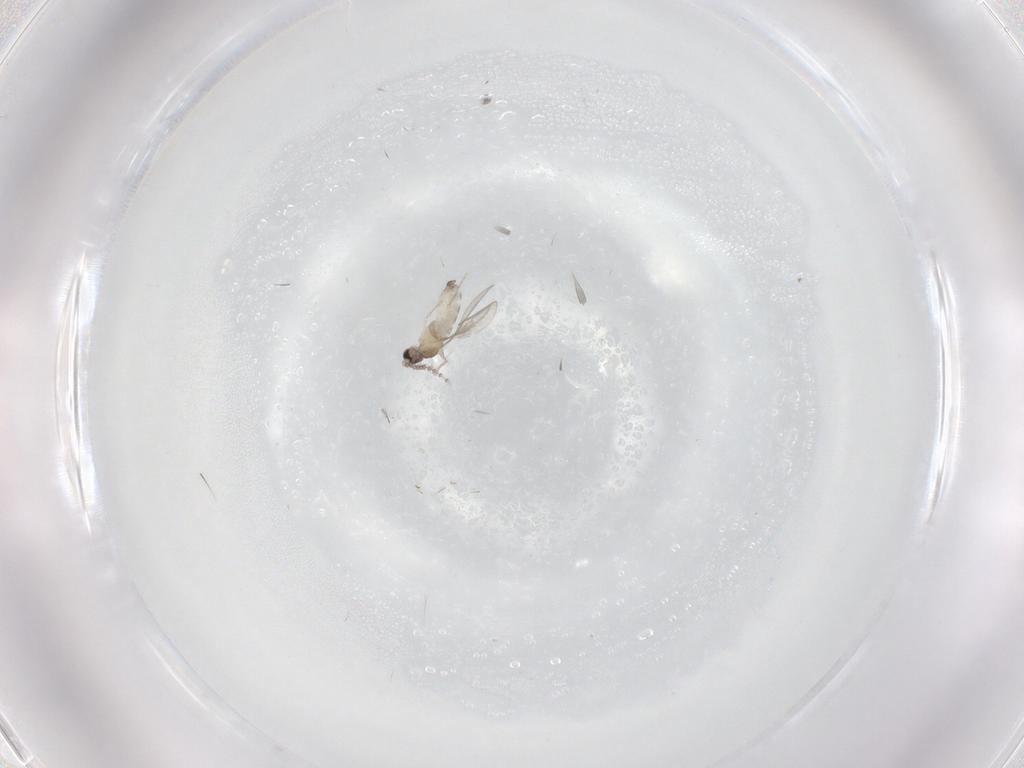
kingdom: Animalia
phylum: Arthropoda
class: Insecta
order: Diptera
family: Cecidomyiidae
